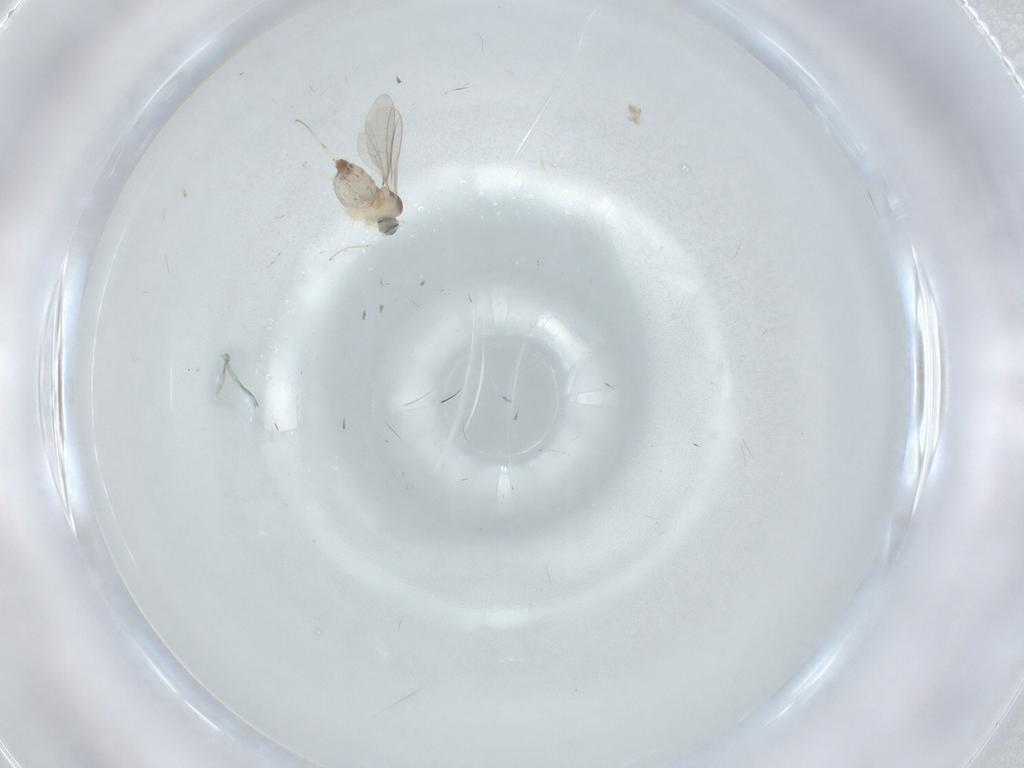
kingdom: Animalia
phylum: Arthropoda
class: Insecta
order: Diptera
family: Cecidomyiidae
